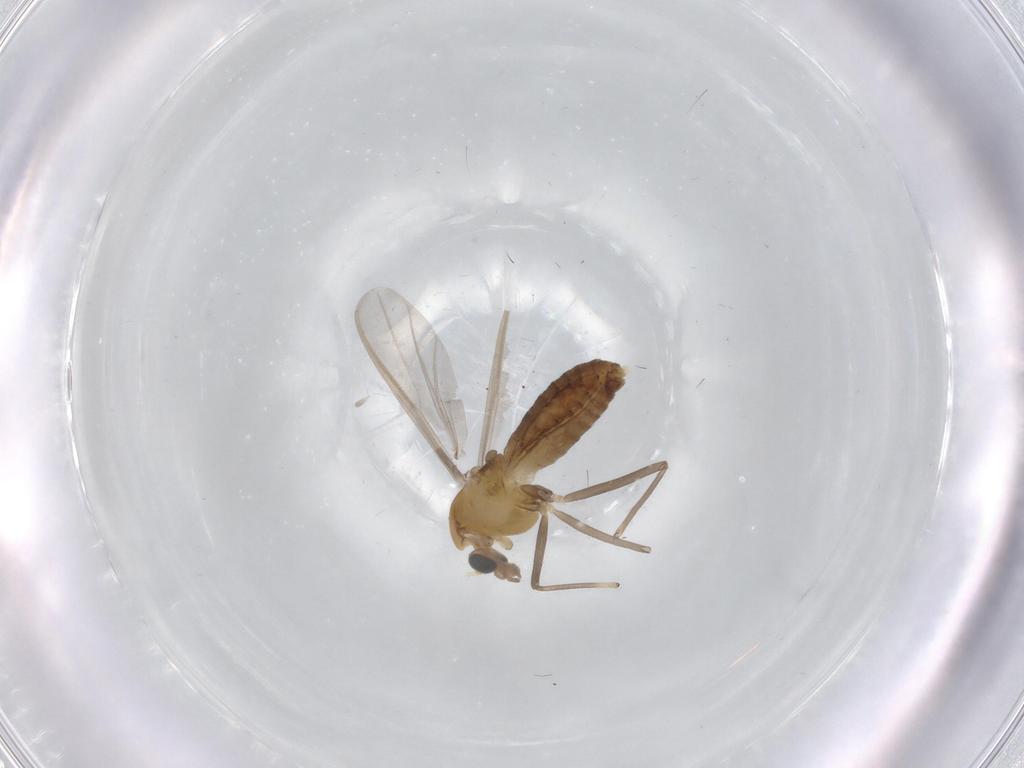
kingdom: Animalia
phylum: Arthropoda
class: Insecta
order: Diptera
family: Chironomidae
